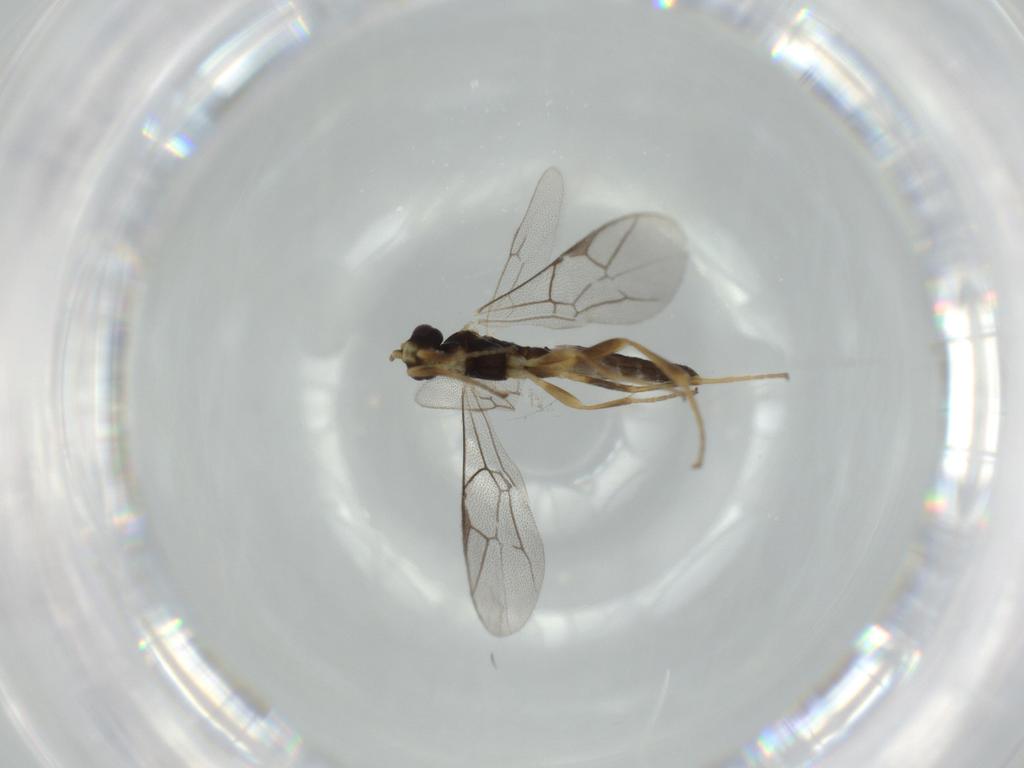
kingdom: Animalia
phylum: Arthropoda
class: Insecta
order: Hymenoptera
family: Ichneumonidae
